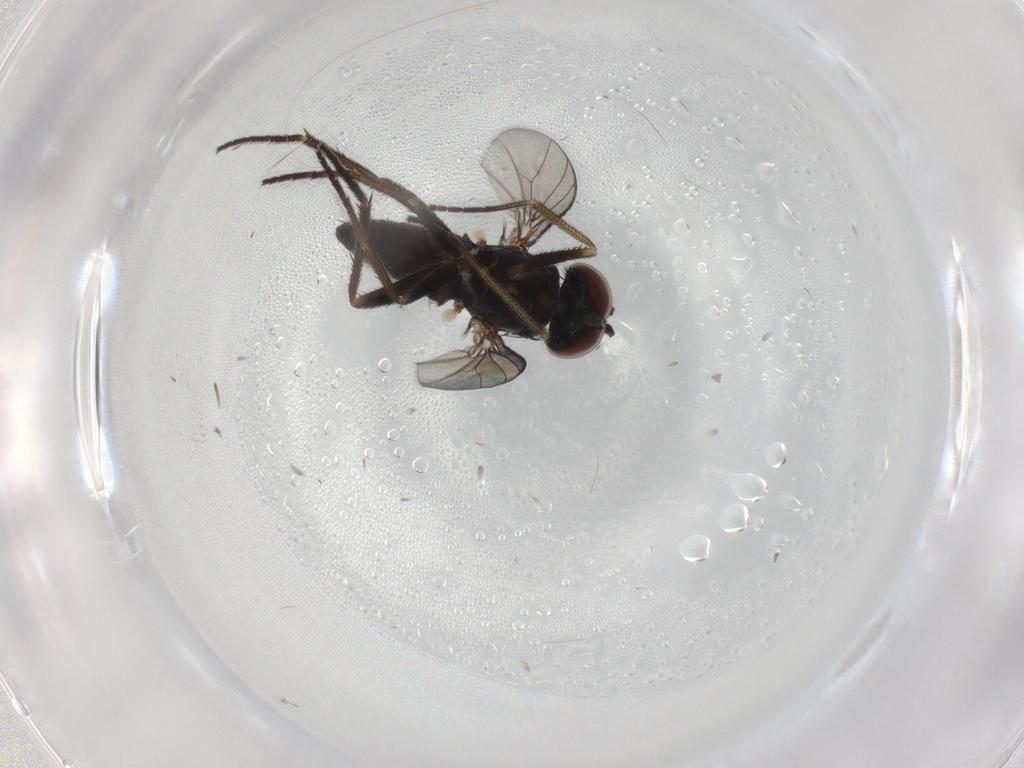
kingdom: Animalia
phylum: Arthropoda
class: Insecta
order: Diptera
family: Dolichopodidae
